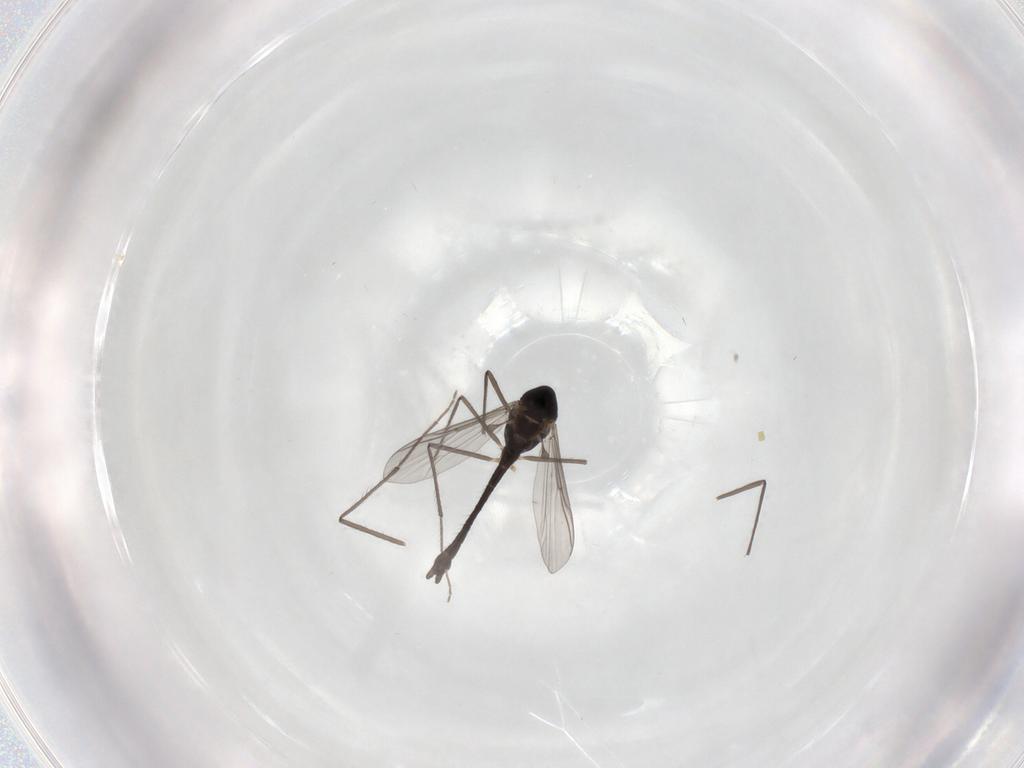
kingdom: Animalia
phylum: Arthropoda
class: Insecta
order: Diptera
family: Chironomidae
